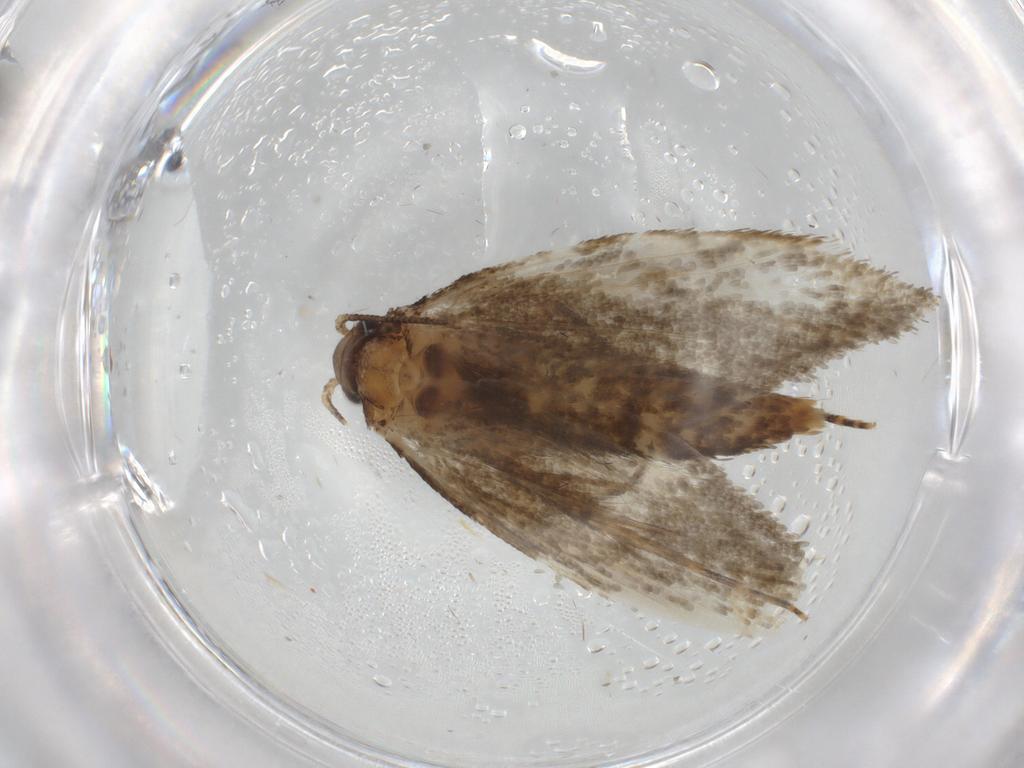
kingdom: Animalia
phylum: Arthropoda
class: Insecta
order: Lepidoptera
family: Crambidae
